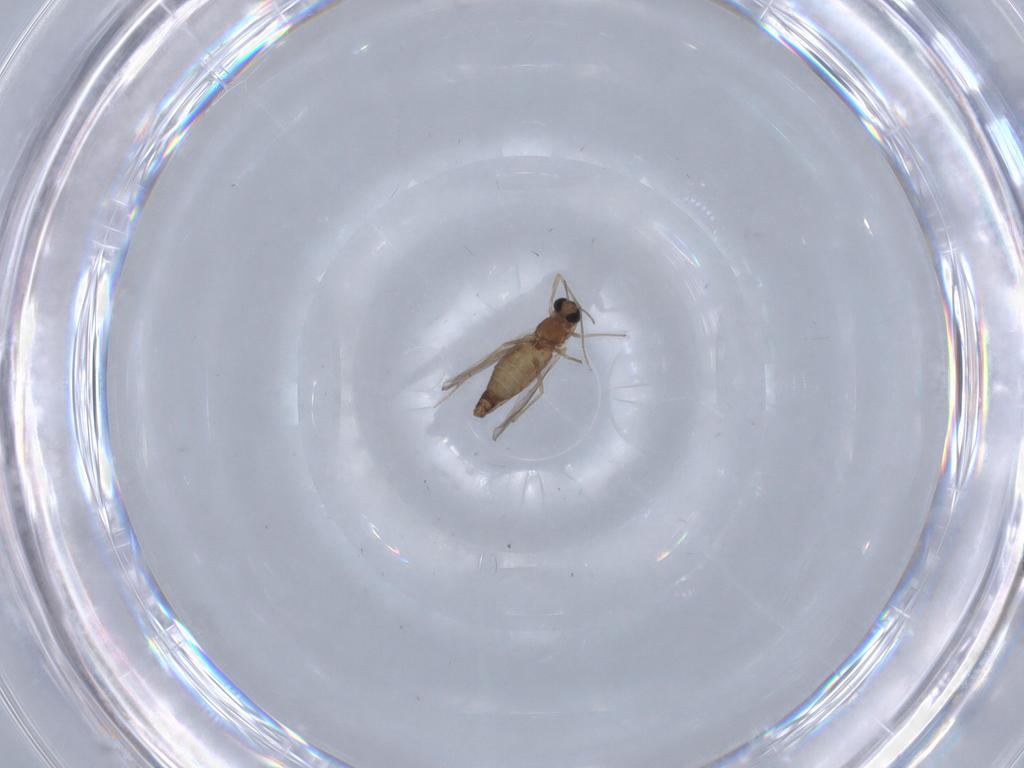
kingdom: Animalia
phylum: Arthropoda
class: Insecta
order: Diptera
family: Chironomidae
